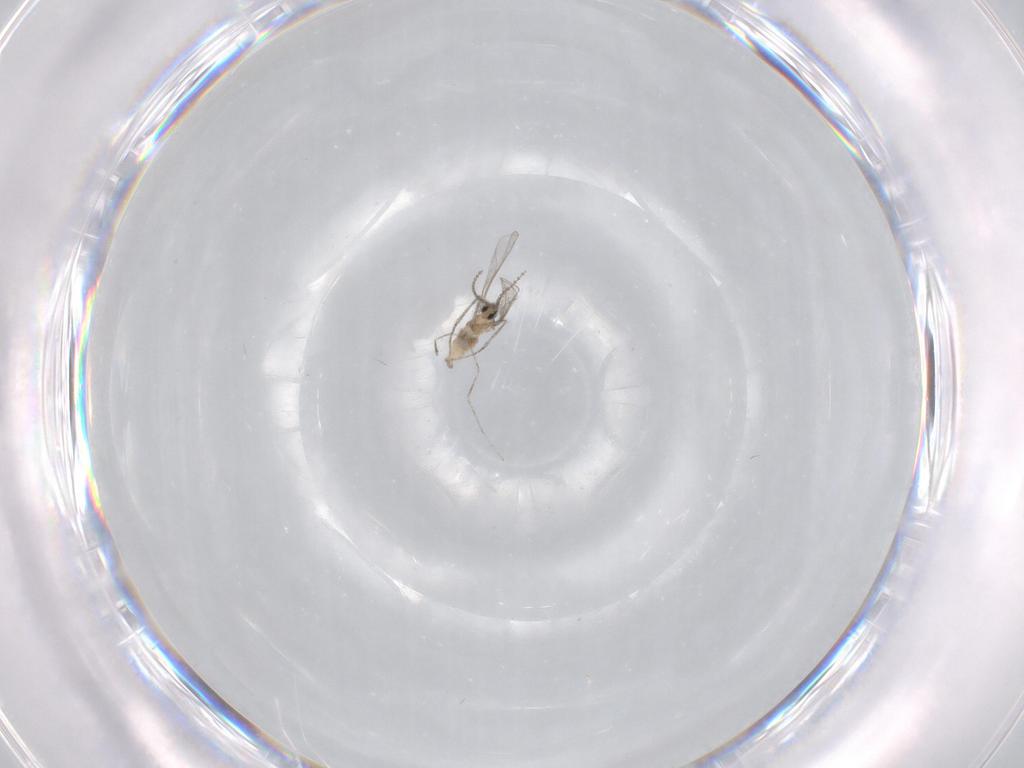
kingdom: Animalia
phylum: Arthropoda
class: Insecta
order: Diptera
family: Cecidomyiidae
